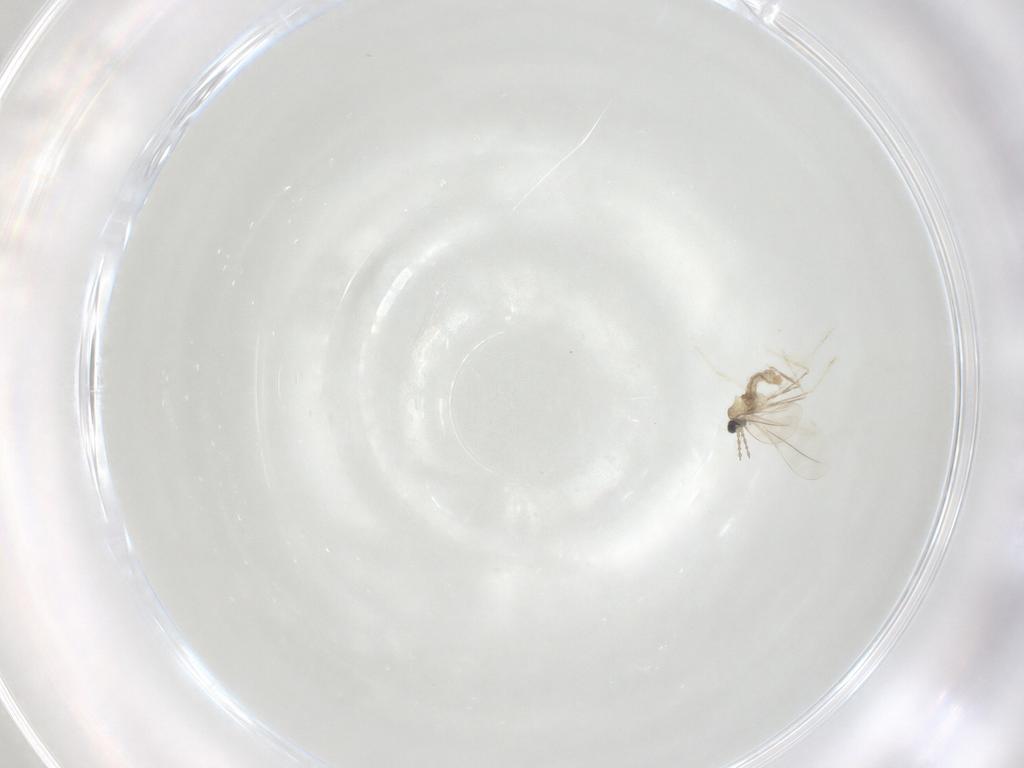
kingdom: Animalia
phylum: Arthropoda
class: Insecta
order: Diptera
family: Cecidomyiidae
